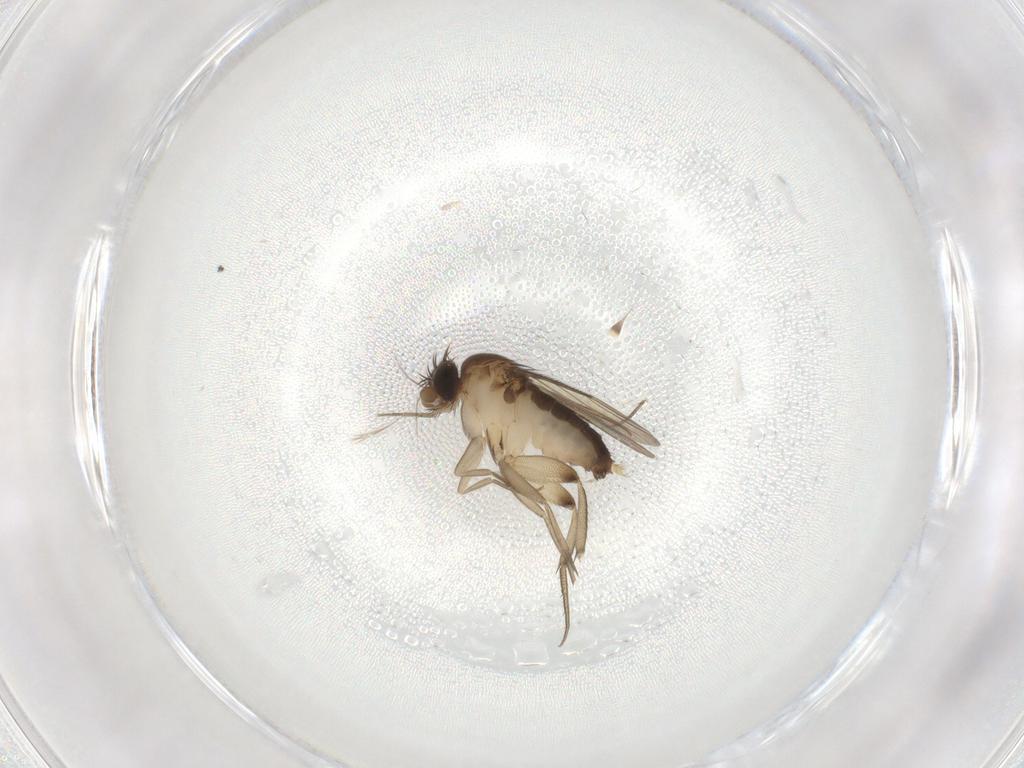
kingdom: Animalia
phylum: Arthropoda
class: Insecta
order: Diptera
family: Phoridae
